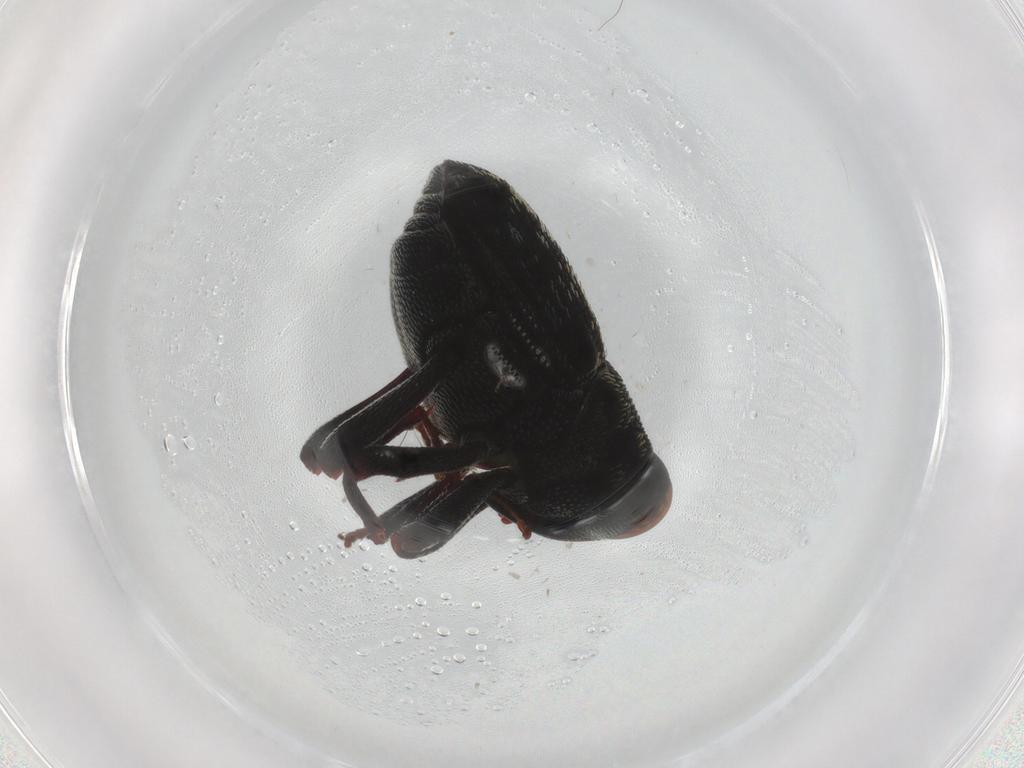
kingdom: Animalia
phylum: Arthropoda
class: Insecta
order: Coleoptera
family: Curculionidae
